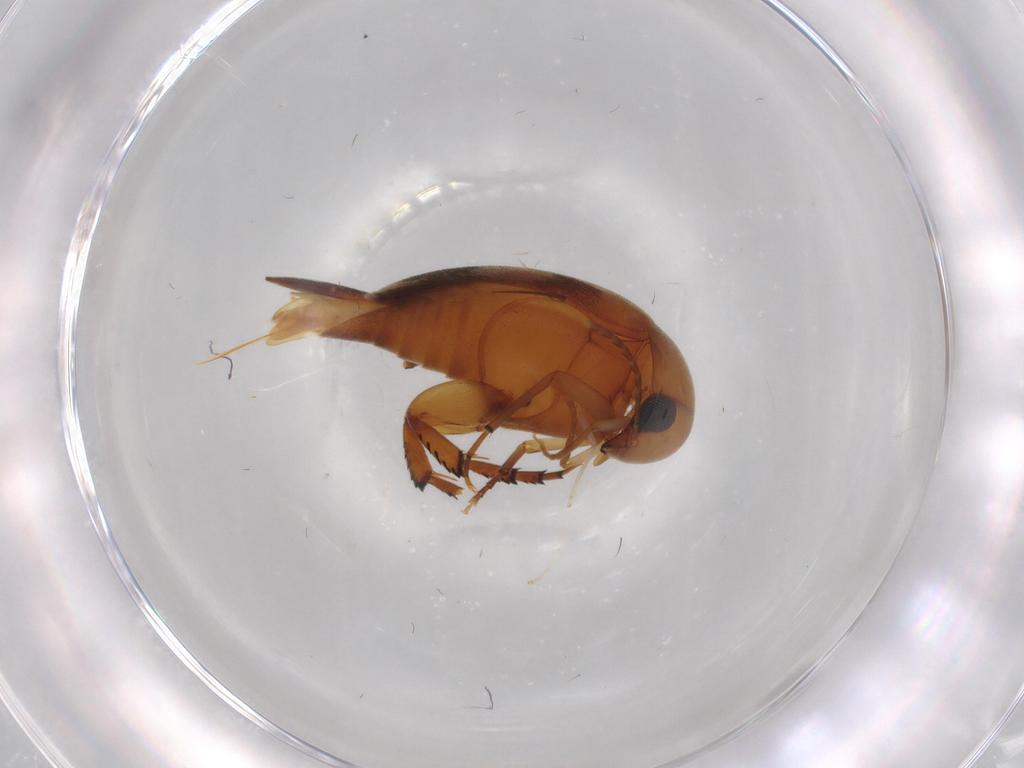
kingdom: Animalia
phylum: Arthropoda
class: Insecta
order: Coleoptera
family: Mordellidae
